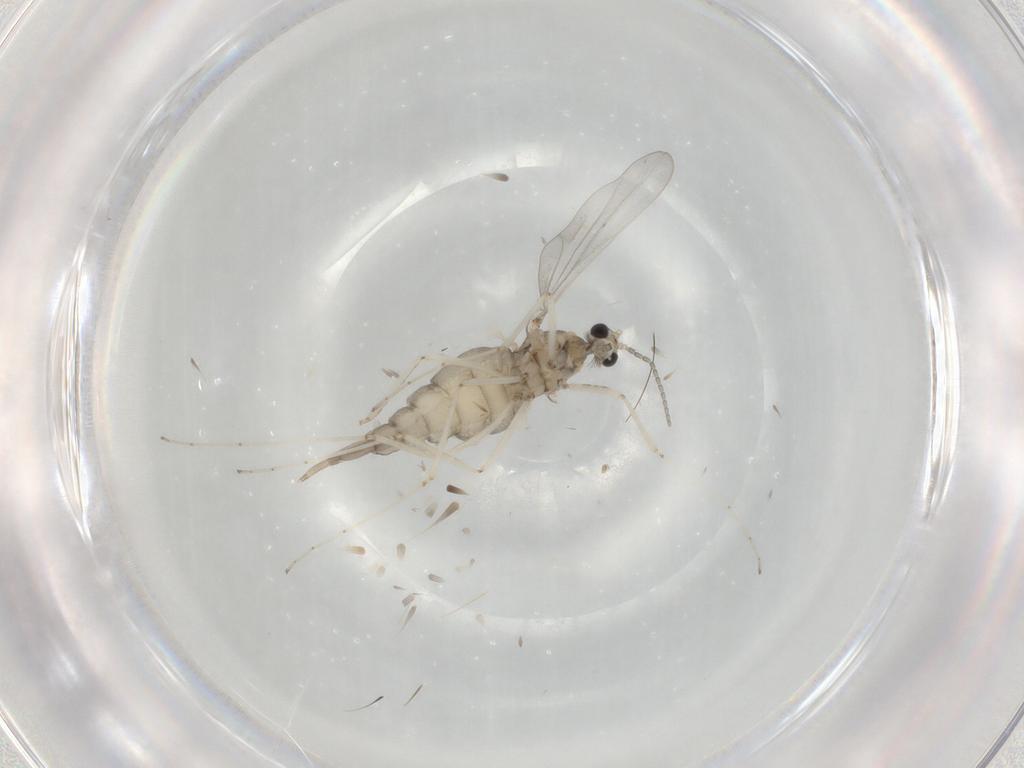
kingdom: Animalia
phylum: Arthropoda
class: Insecta
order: Diptera
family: Cecidomyiidae
